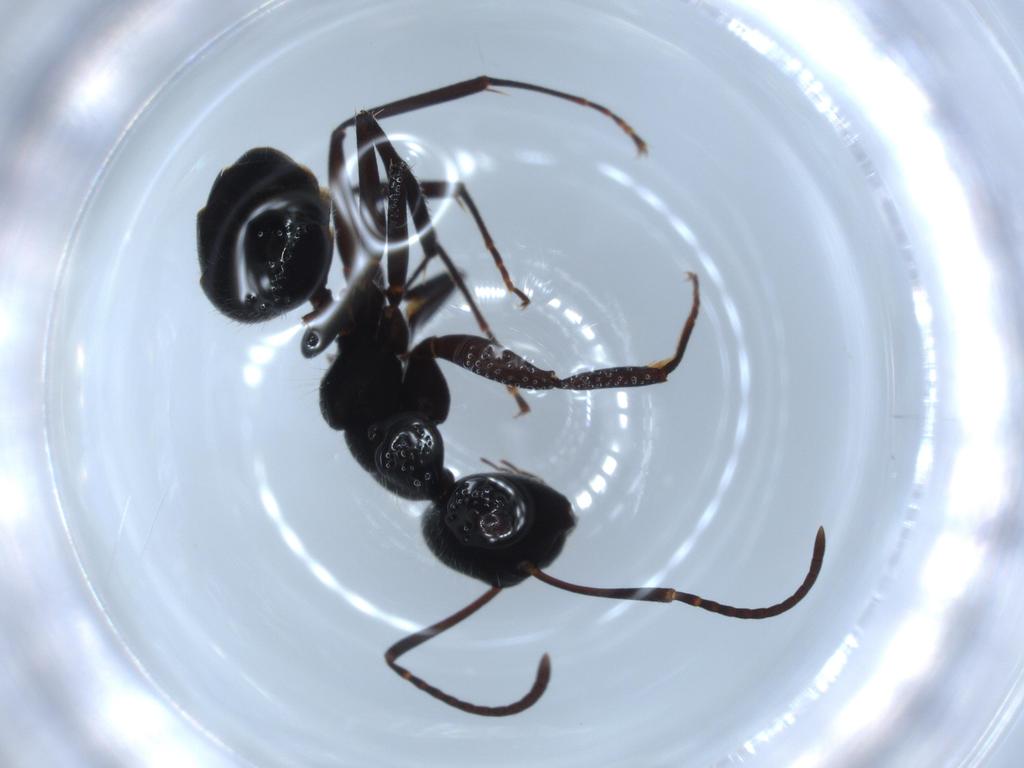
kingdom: Animalia
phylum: Arthropoda
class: Insecta
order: Hymenoptera
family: Formicidae
